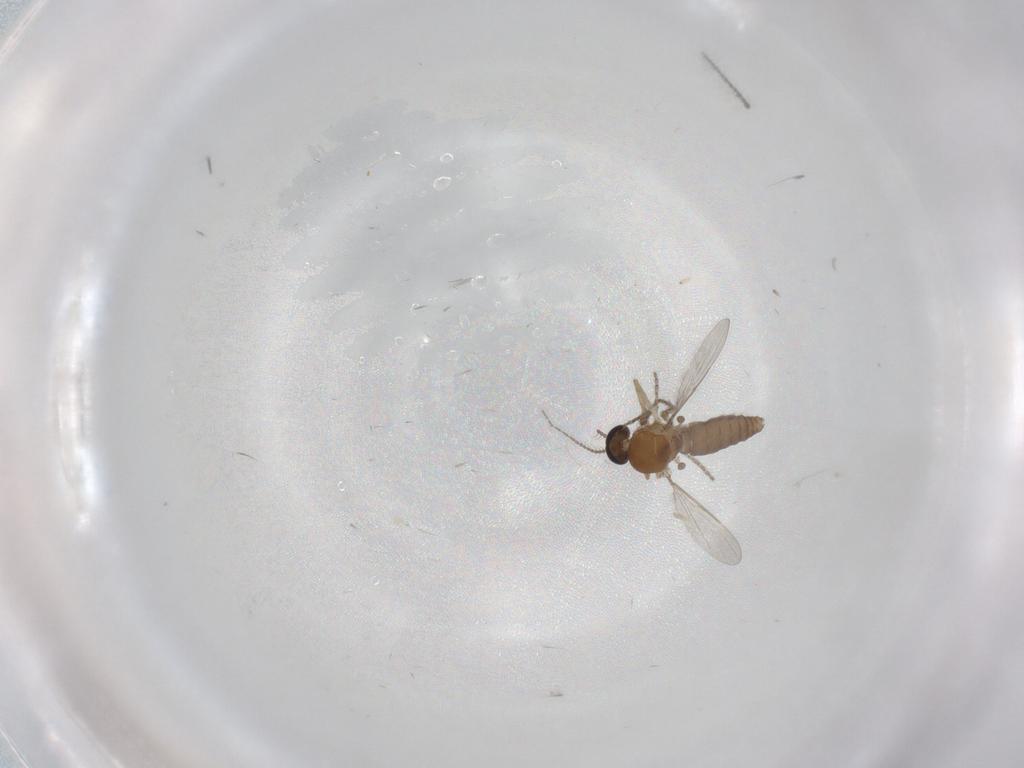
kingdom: Animalia
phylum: Arthropoda
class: Insecta
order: Diptera
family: Ceratopogonidae
